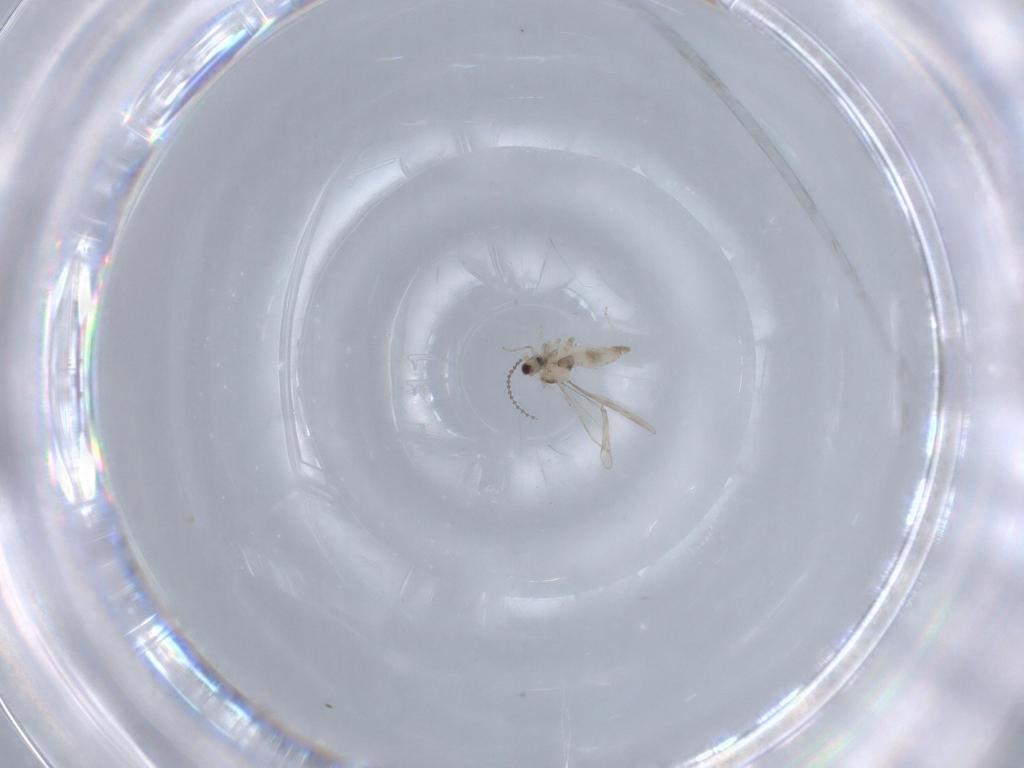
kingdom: Animalia
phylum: Arthropoda
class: Insecta
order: Diptera
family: Cecidomyiidae
